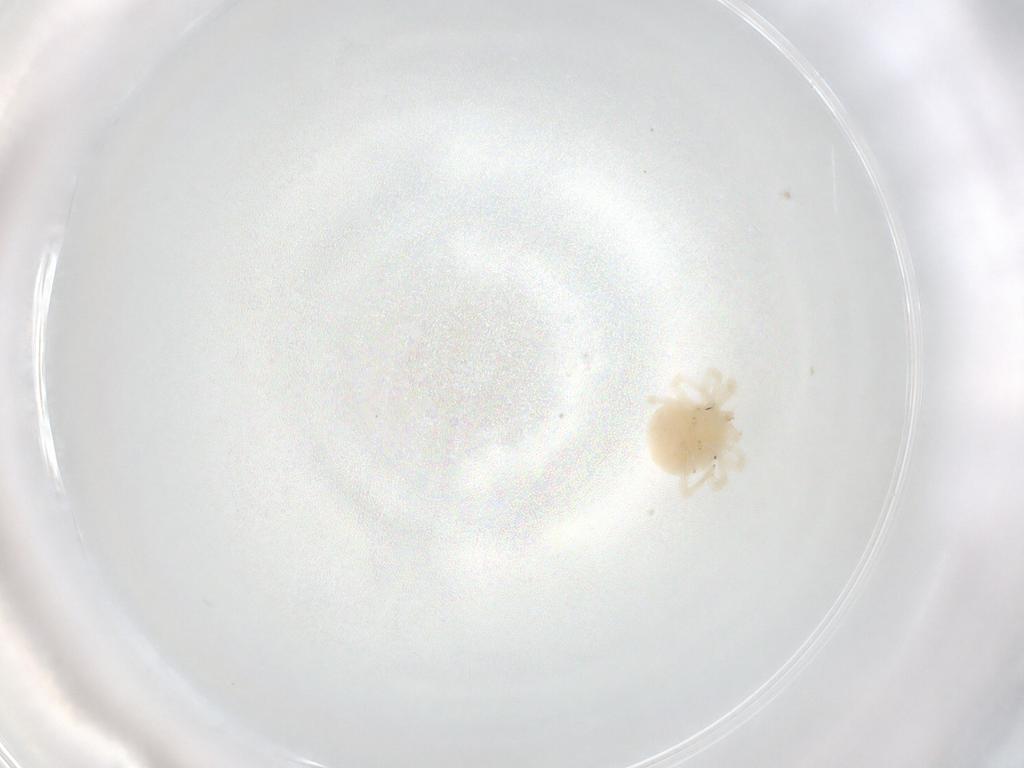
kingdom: Animalia
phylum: Arthropoda
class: Arachnida
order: Trombidiformes
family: Anystidae
